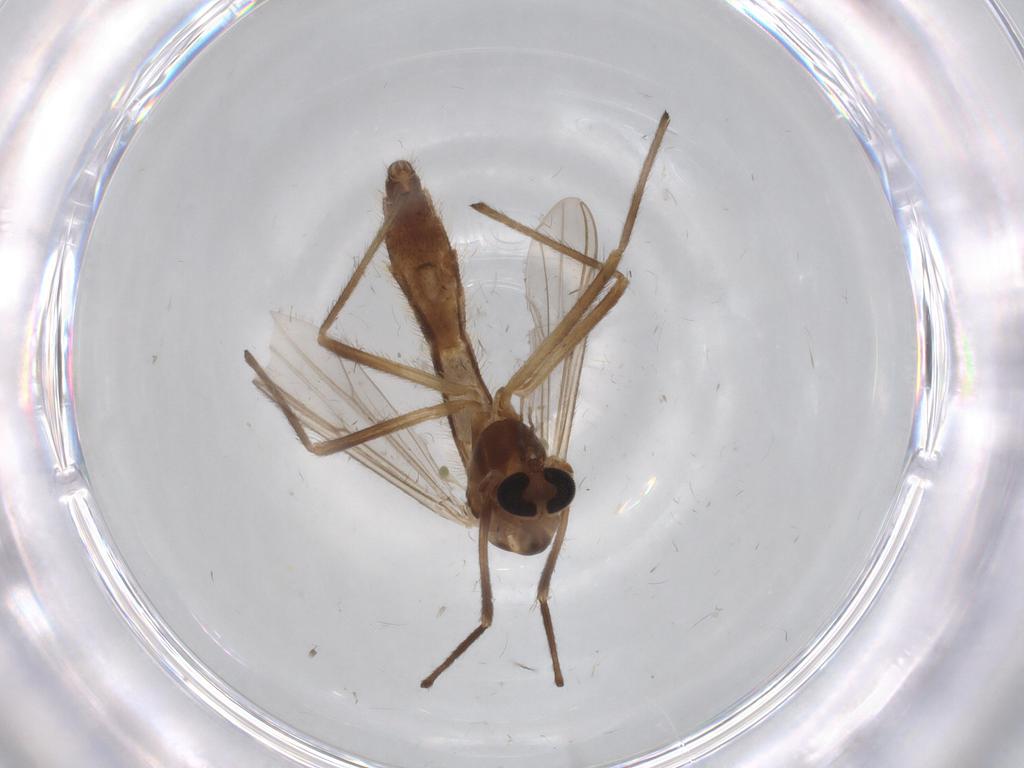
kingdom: Animalia
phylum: Arthropoda
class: Insecta
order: Diptera
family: Chironomidae
